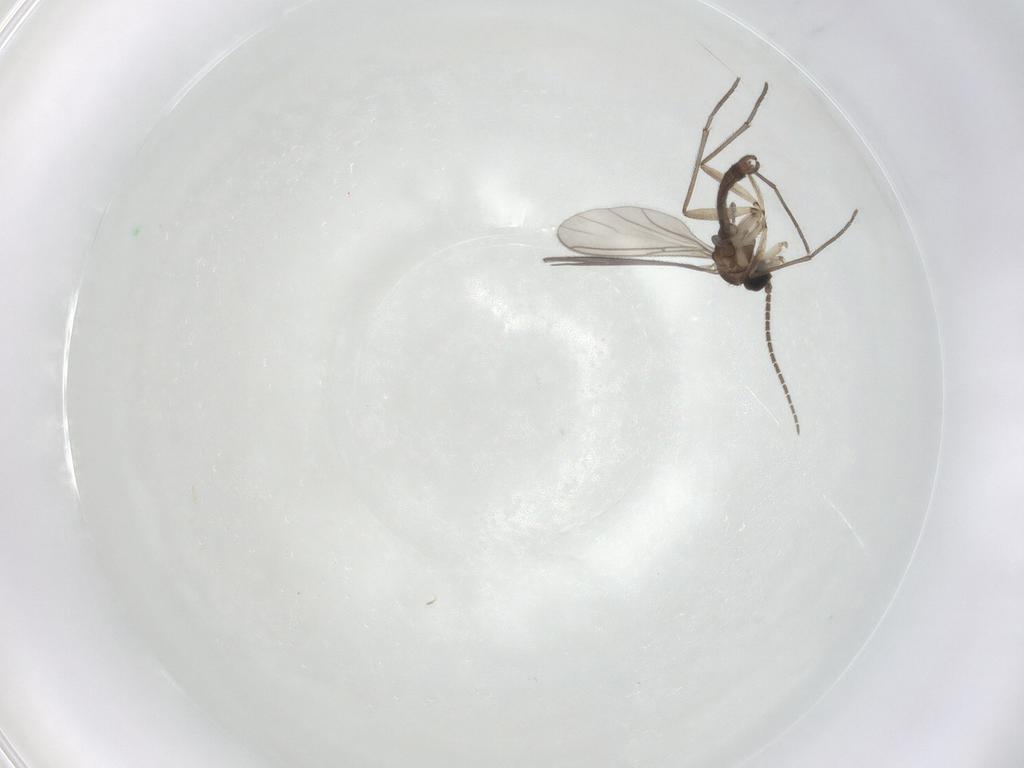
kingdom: Animalia
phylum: Arthropoda
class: Insecta
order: Diptera
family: Sciaridae
